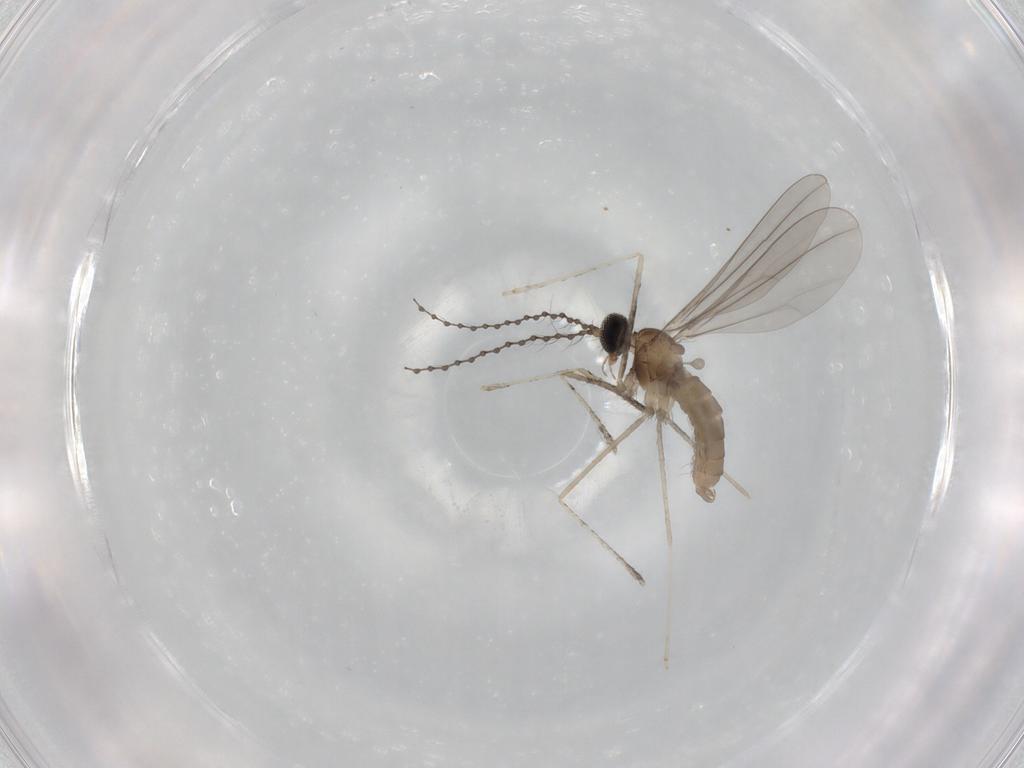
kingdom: Animalia
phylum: Arthropoda
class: Insecta
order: Diptera
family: Cecidomyiidae
